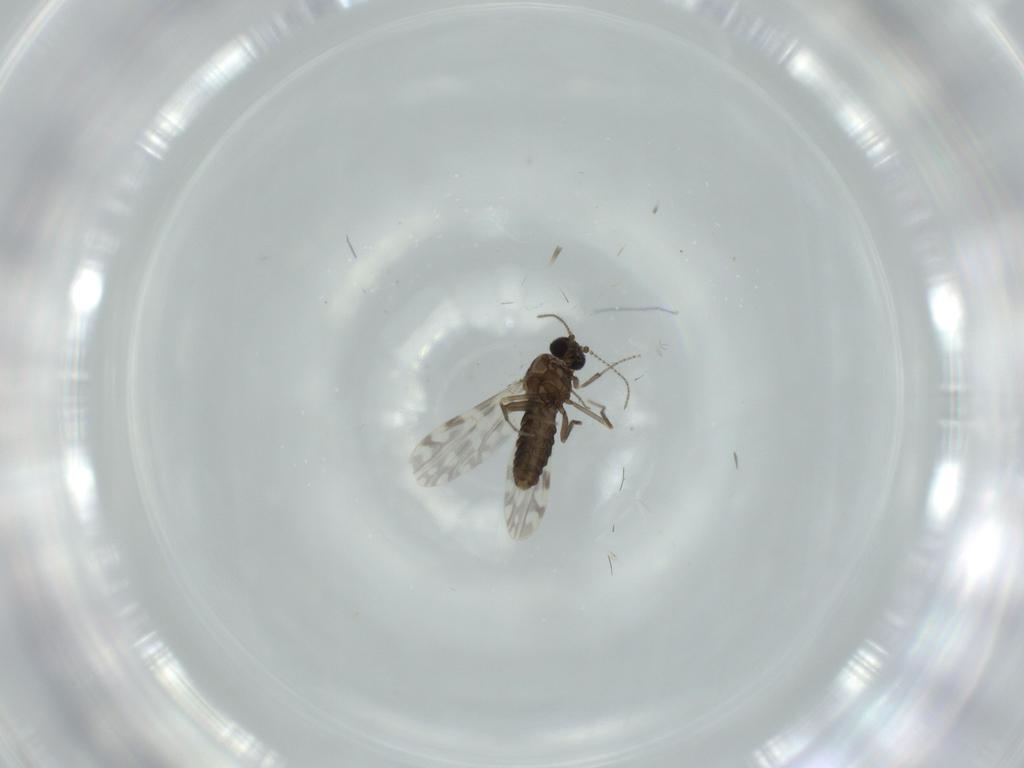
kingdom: Animalia
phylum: Arthropoda
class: Insecta
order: Diptera
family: Ceratopogonidae
